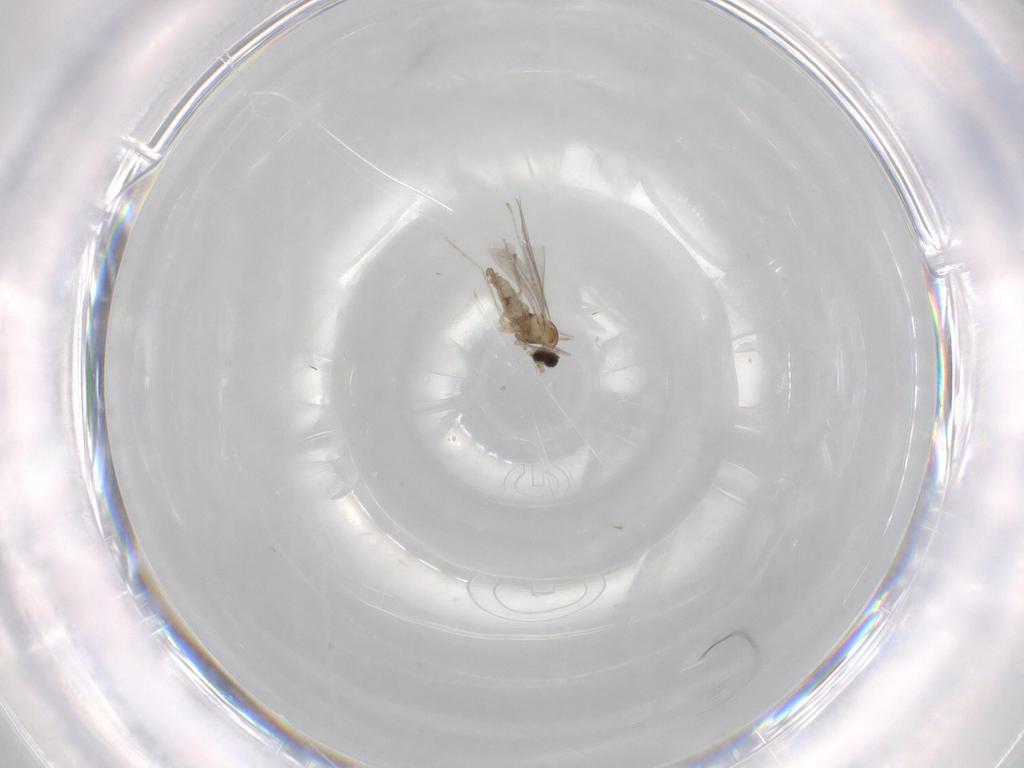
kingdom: Animalia
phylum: Arthropoda
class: Insecta
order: Diptera
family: Cecidomyiidae
